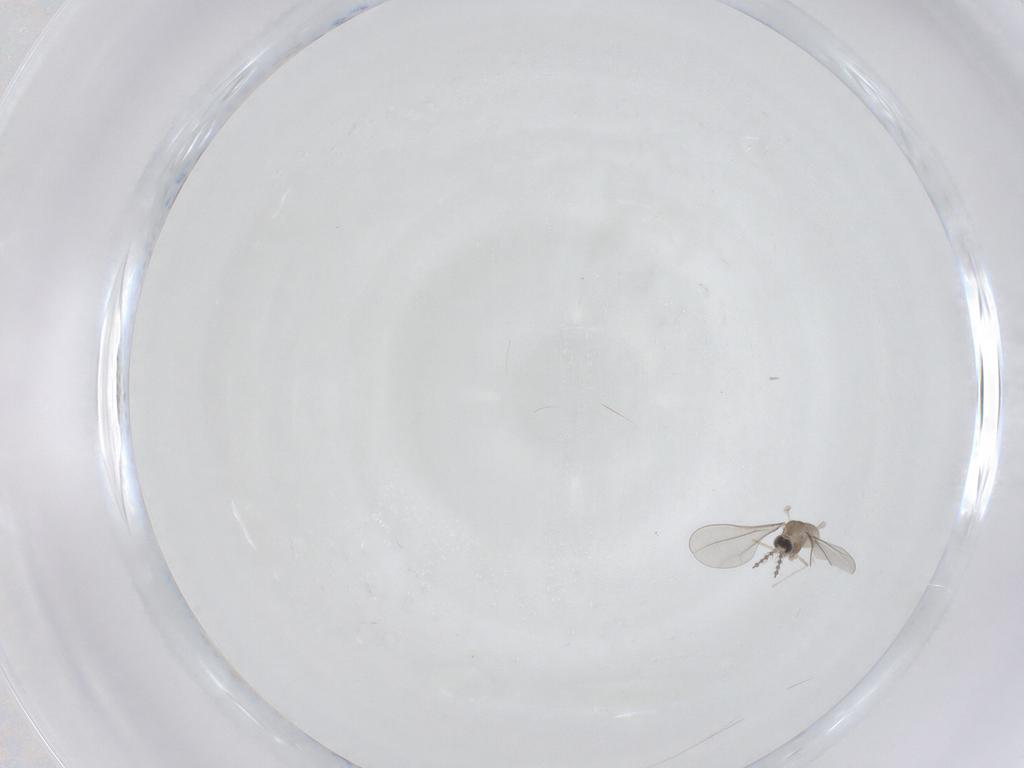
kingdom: Animalia
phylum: Arthropoda
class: Insecta
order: Diptera
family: Cecidomyiidae
